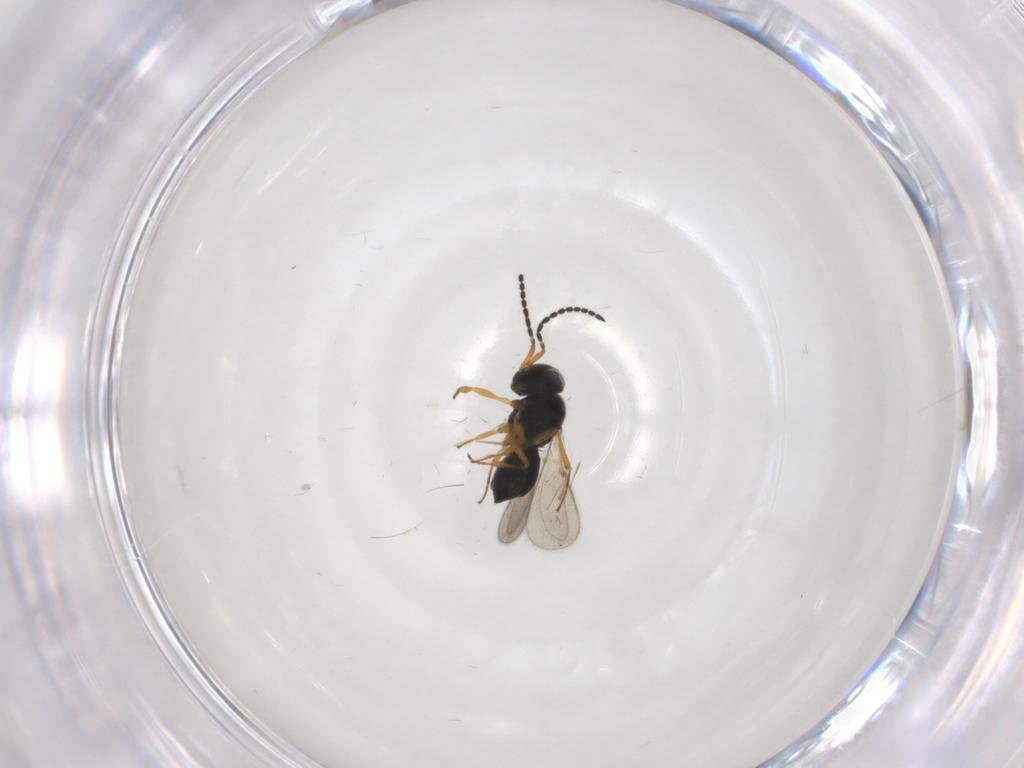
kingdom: Animalia
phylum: Arthropoda
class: Insecta
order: Hymenoptera
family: Scelionidae
